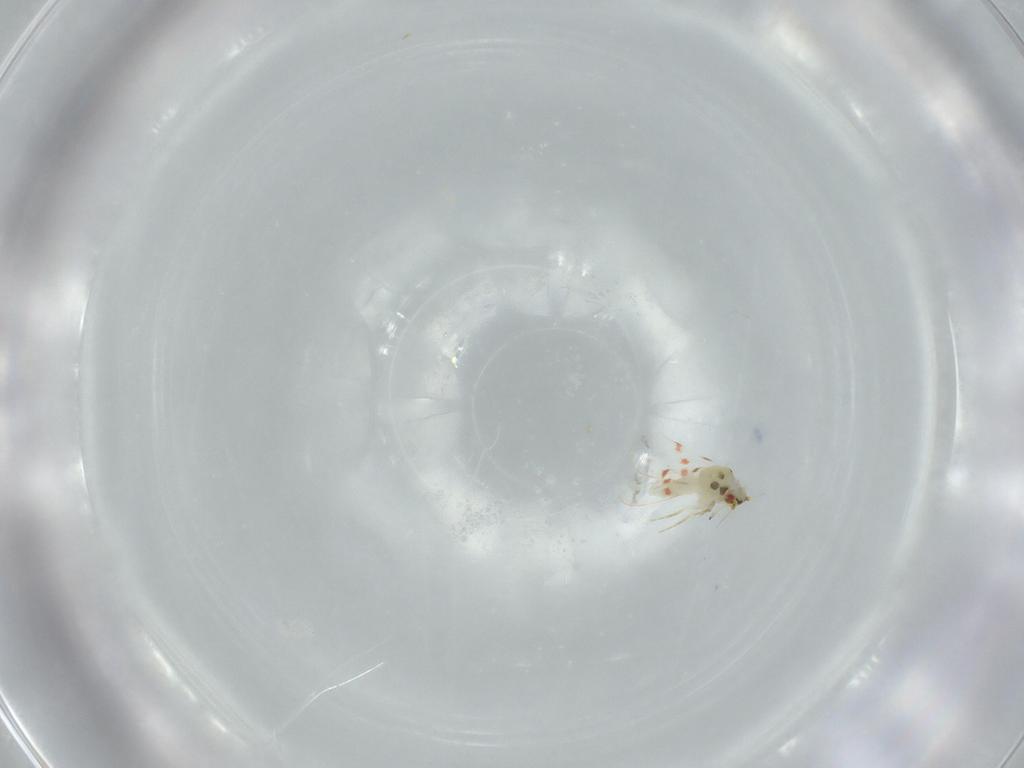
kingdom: Animalia
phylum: Arthropoda
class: Insecta
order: Hemiptera
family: Aleyrodidae
